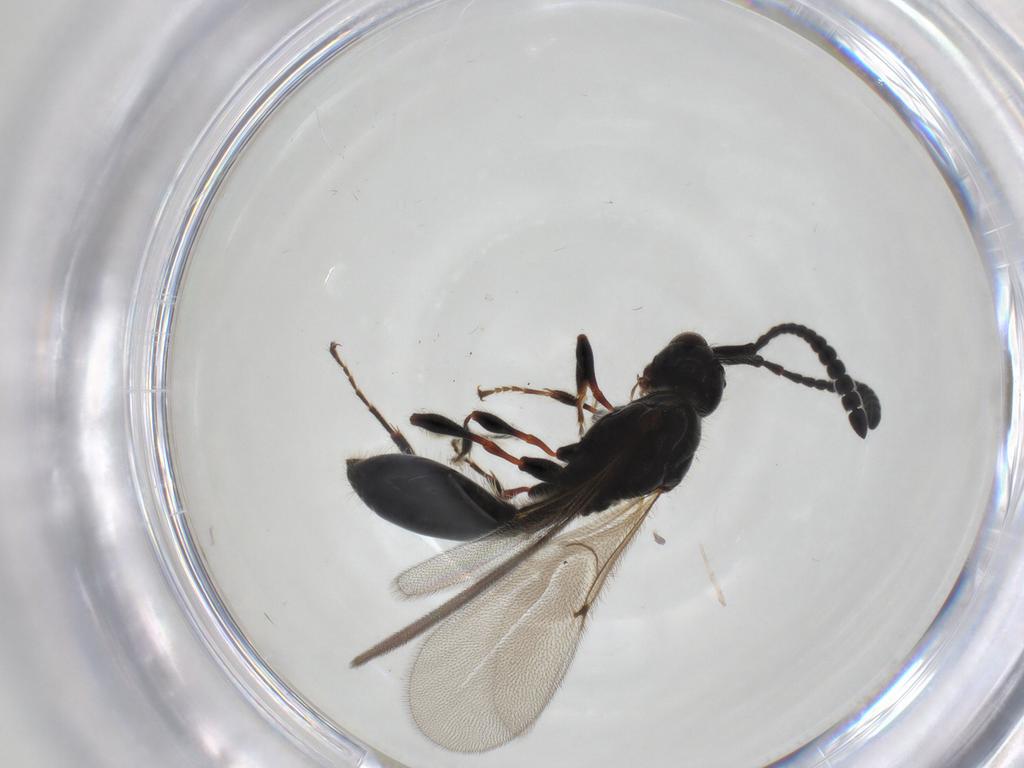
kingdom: Animalia
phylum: Arthropoda
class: Insecta
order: Hymenoptera
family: Diapriidae
